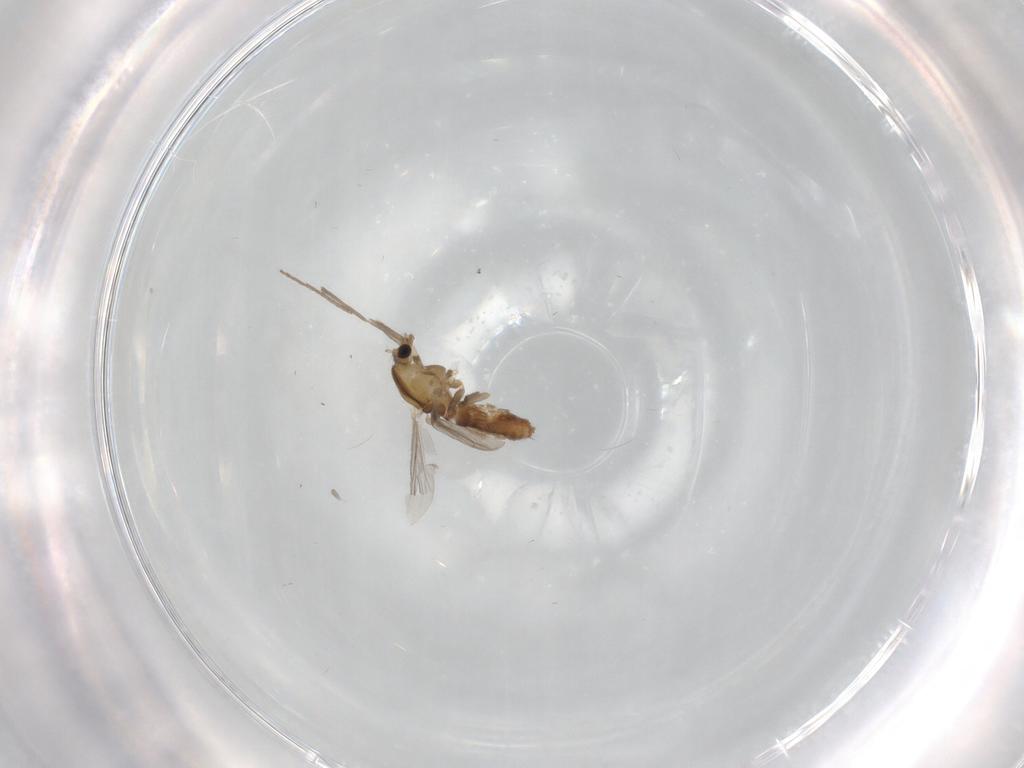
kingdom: Animalia
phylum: Arthropoda
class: Insecta
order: Diptera
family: Chironomidae
